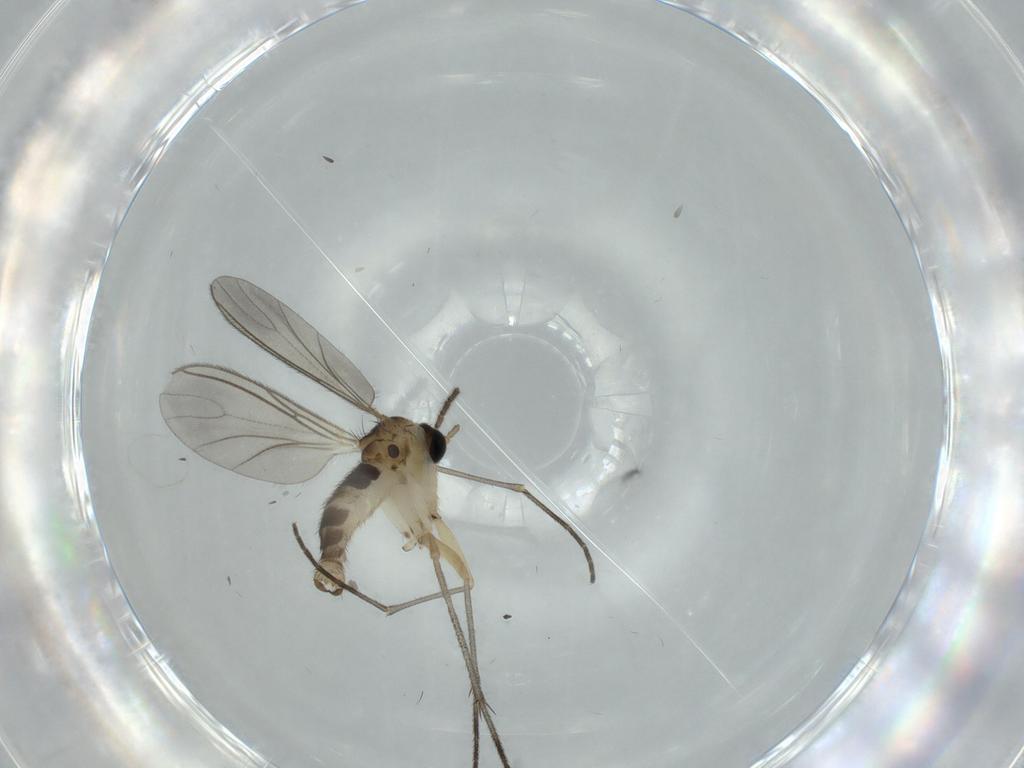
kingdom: Animalia
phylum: Arthropoda
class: Insecta
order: Diptera
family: Sciaridae
